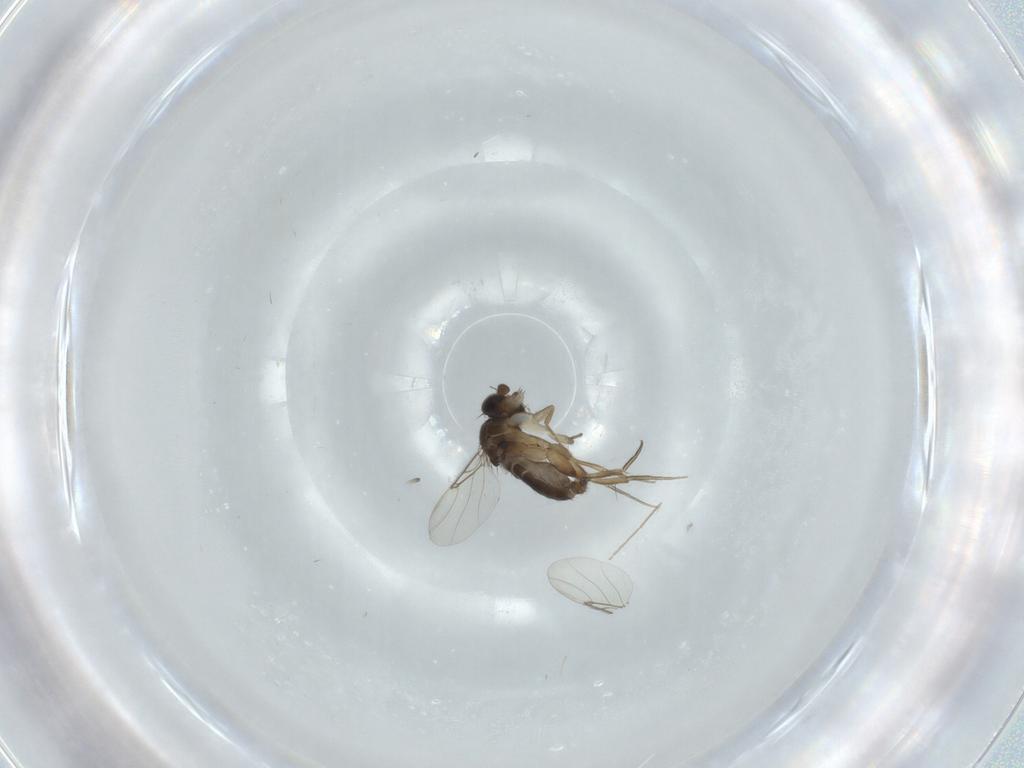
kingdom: Animalia
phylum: Arthropoda
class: Insecta
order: Diptera
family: Phoridae
